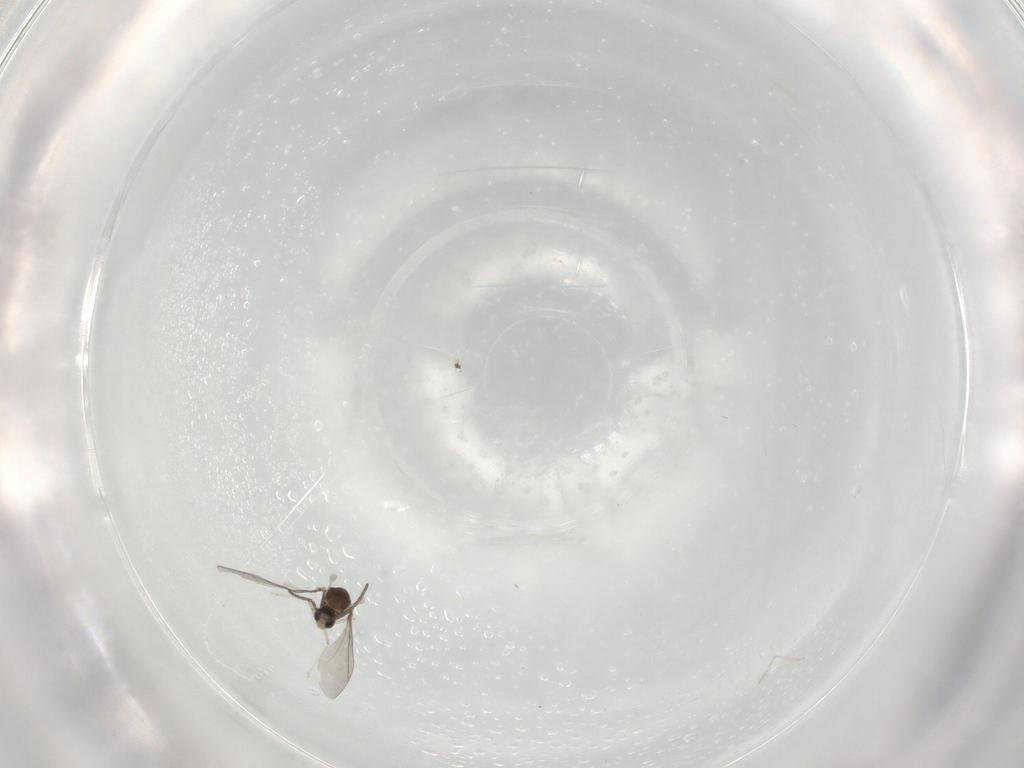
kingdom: Animalia
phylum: Arthropoda
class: Insecta
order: Diptera
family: Cecidomyiidae
